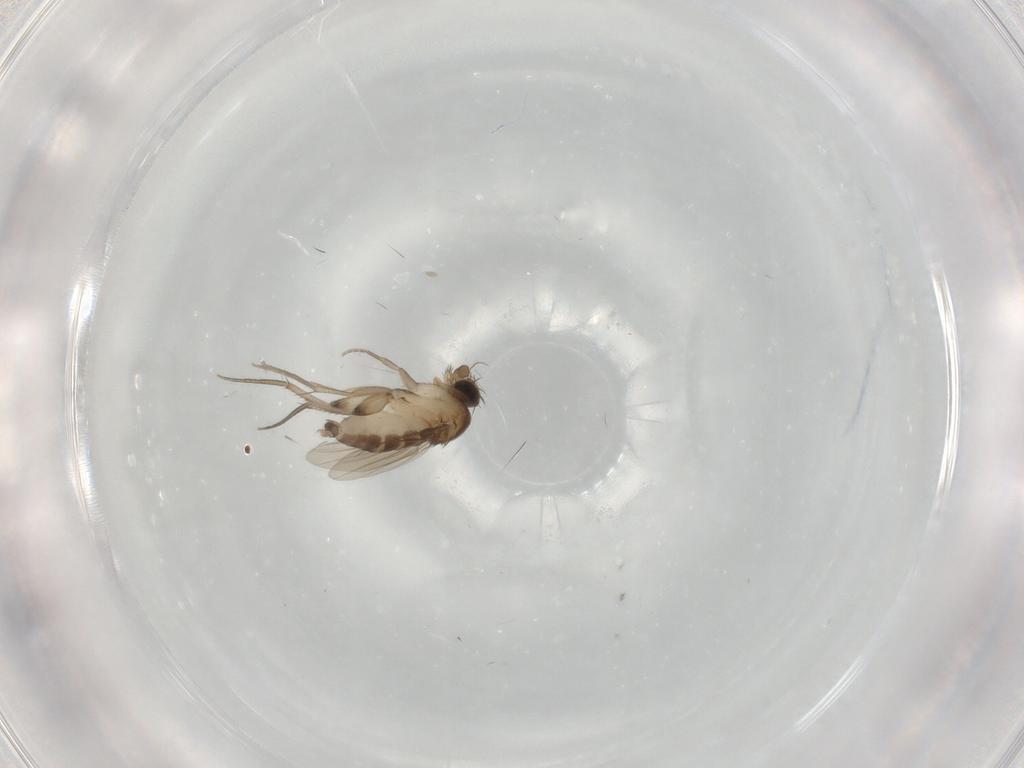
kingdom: Animalia
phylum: Arthropoda
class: Insecta
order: Diptera
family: Phoridae
